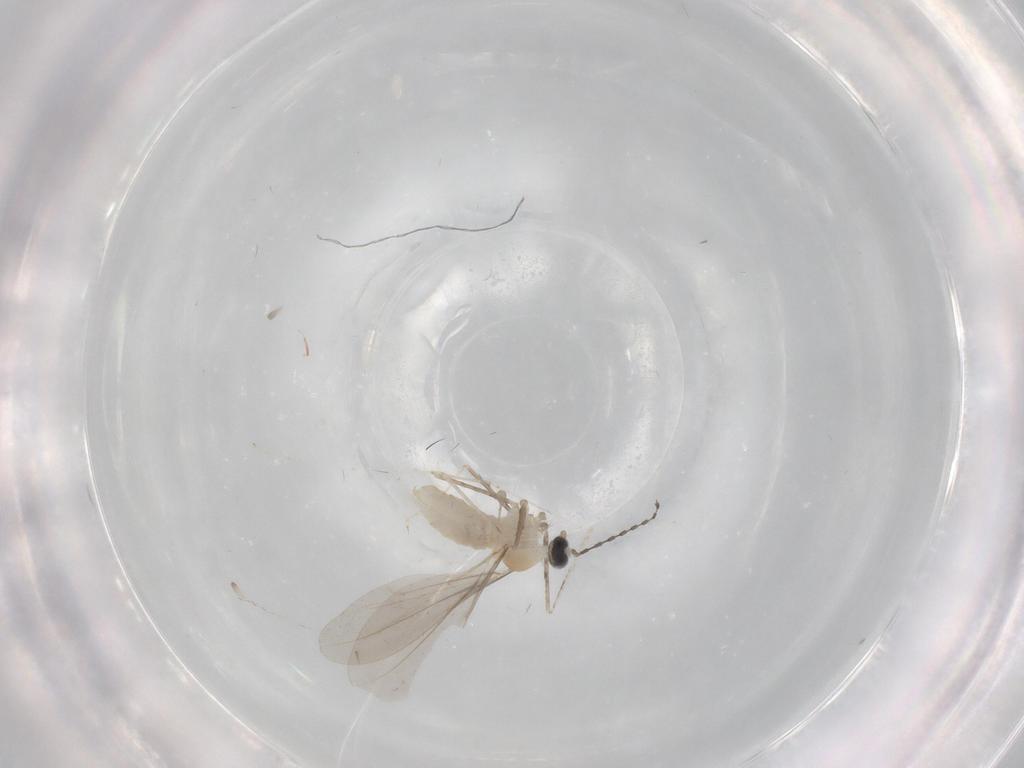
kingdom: Animalia
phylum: Arthropoda
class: Insecta
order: Diptera
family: Cecidomyiidae
